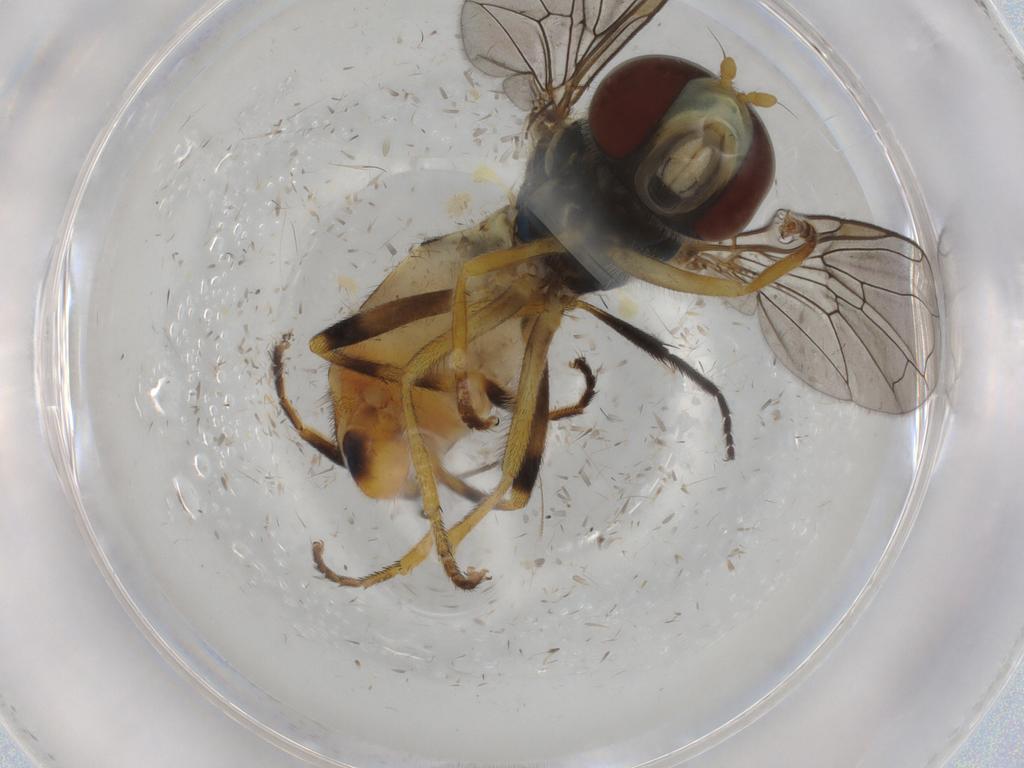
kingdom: Animalia
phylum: Arthropoda
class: Insecta
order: Diptera
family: Syrphidae
